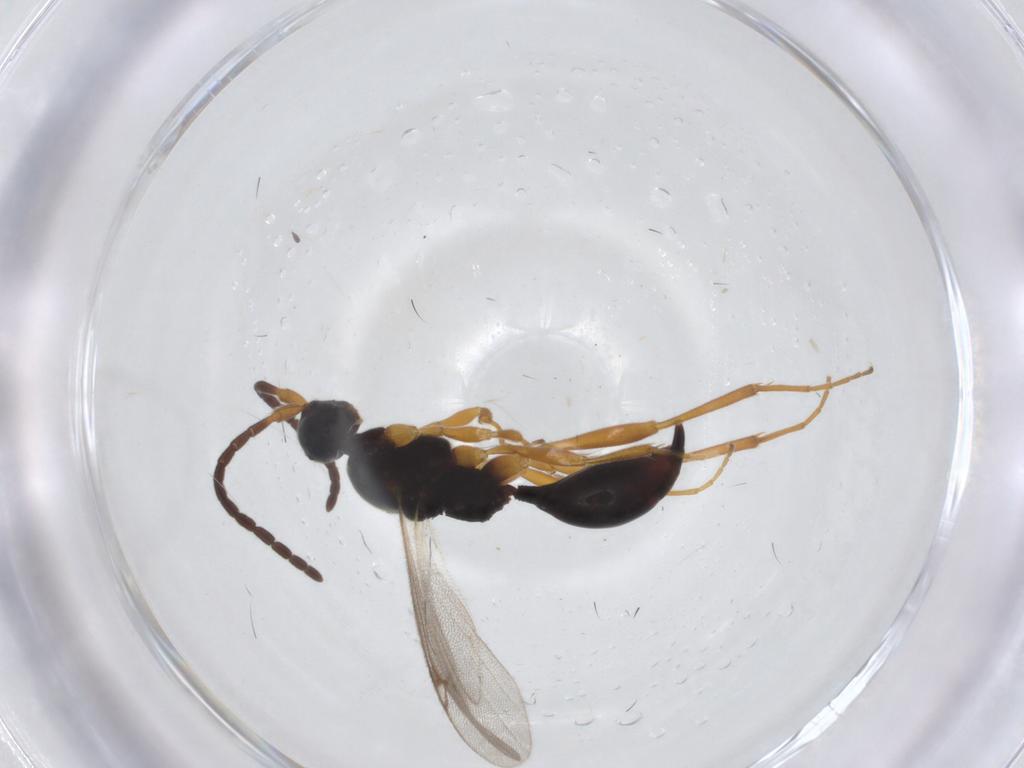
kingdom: Animalia
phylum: Arthropoda
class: Insecta
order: Hymenoptera
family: Proctotrupidae
